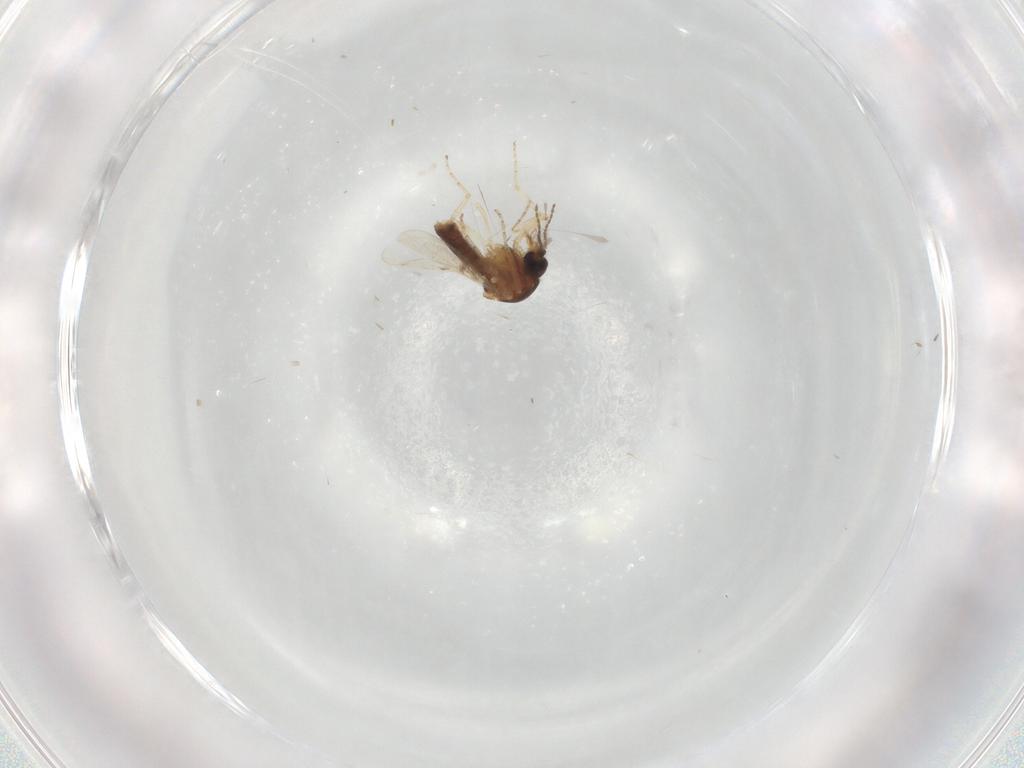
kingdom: Animalia
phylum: Arthropoda
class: Insecta
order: Diptera
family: Cecidomyiidae
